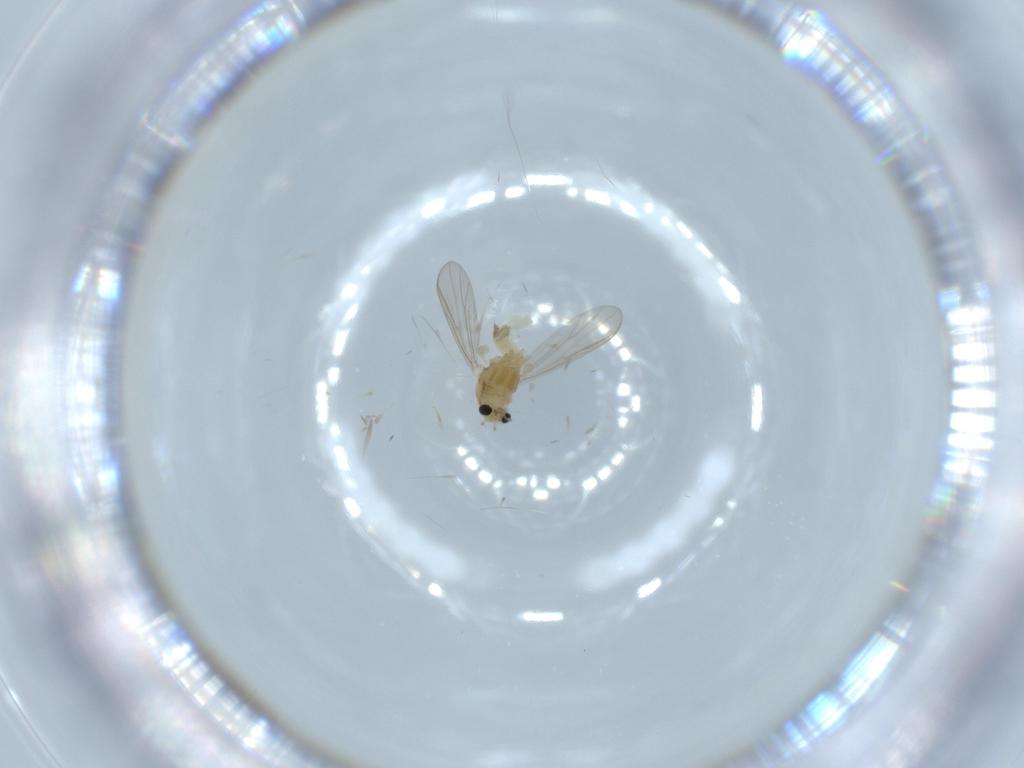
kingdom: Animalia
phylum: Arthropoda
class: Insecta
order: Diptera
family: Chironomidae
